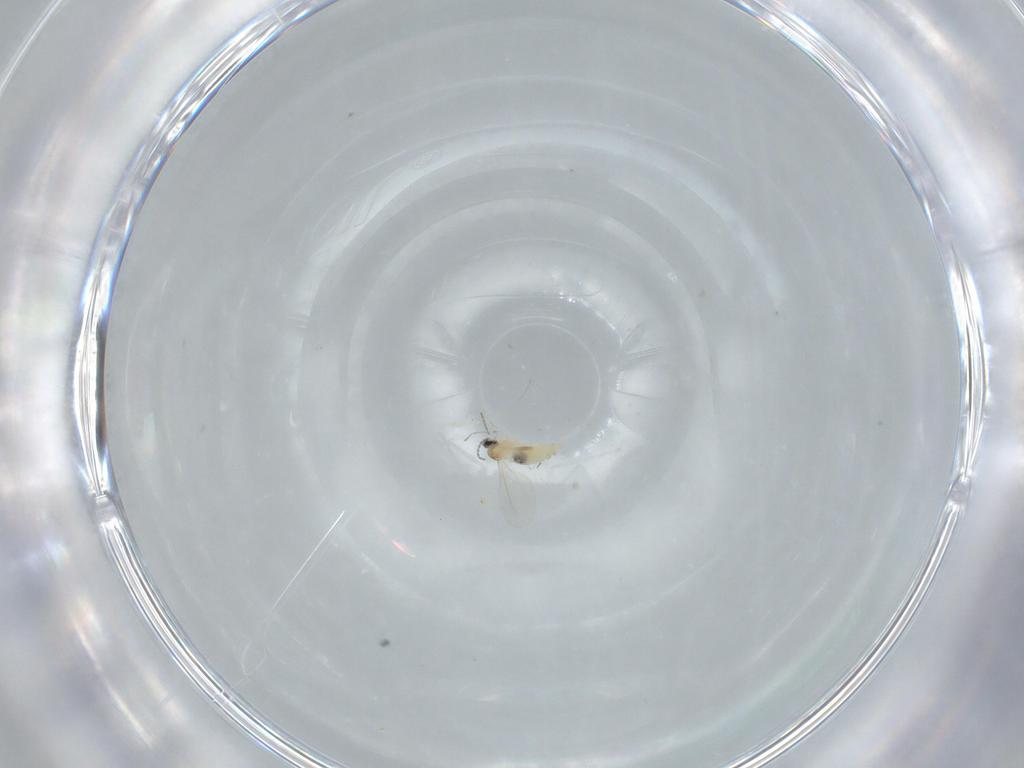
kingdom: Animalia
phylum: Arthropoda
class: Insecta
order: Diptera
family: Cecidomyiidae
